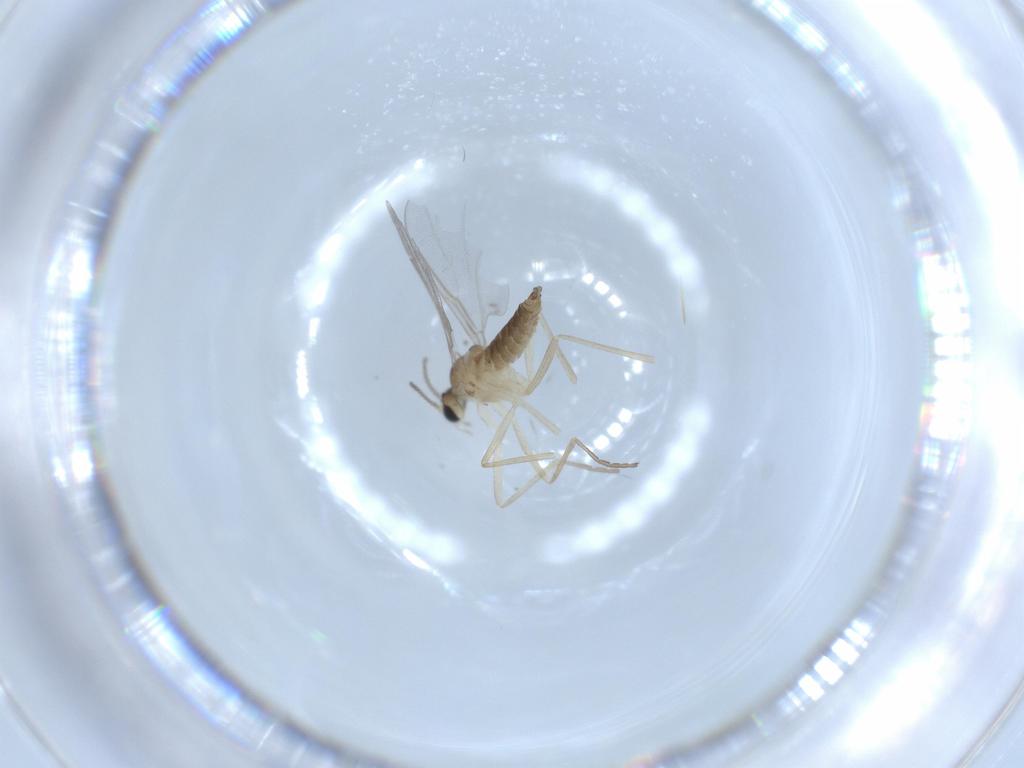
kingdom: Animalia
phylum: Arthropoda
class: Insecta
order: Diptera
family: Cecidomyiidae
